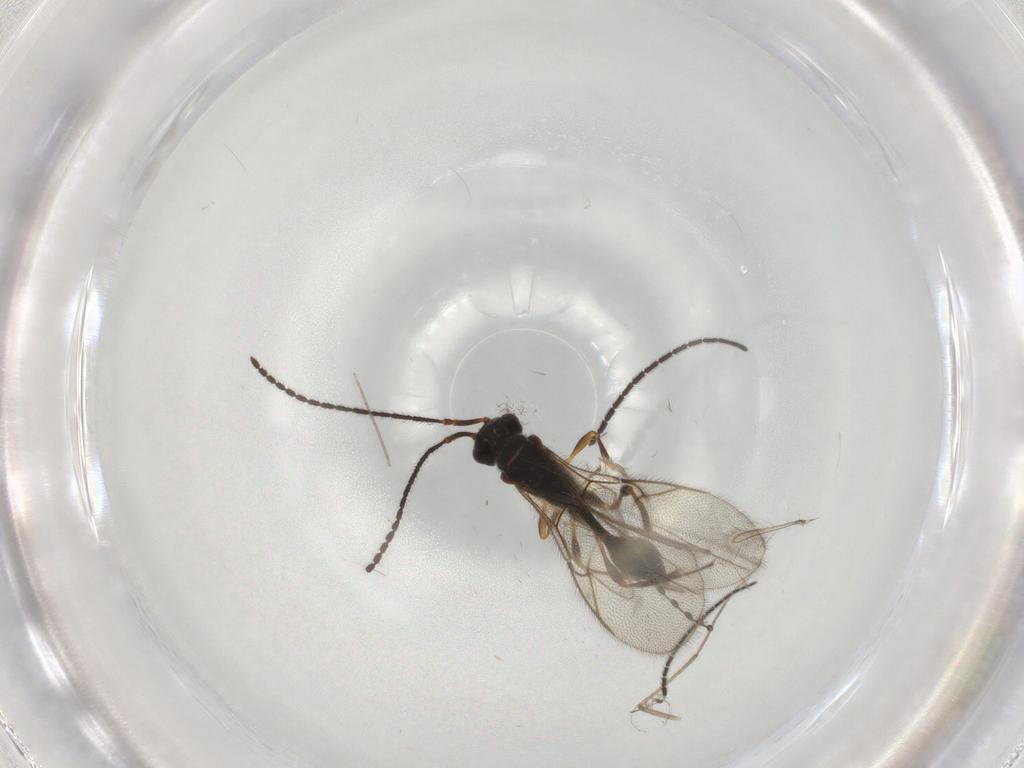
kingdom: Animalia
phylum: Arthropoda
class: Insecta
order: Hymenoptera
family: Diapriidae
